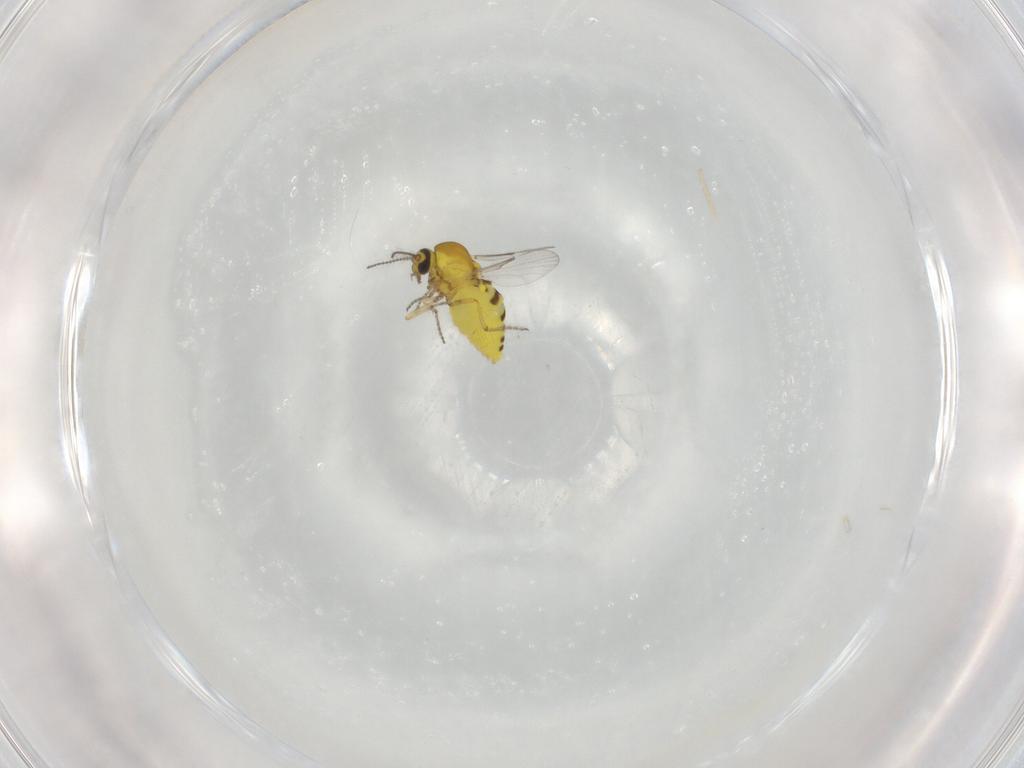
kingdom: Animalia
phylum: Arthropoda
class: Insecta
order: Diptera
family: Ceratopogonidae
